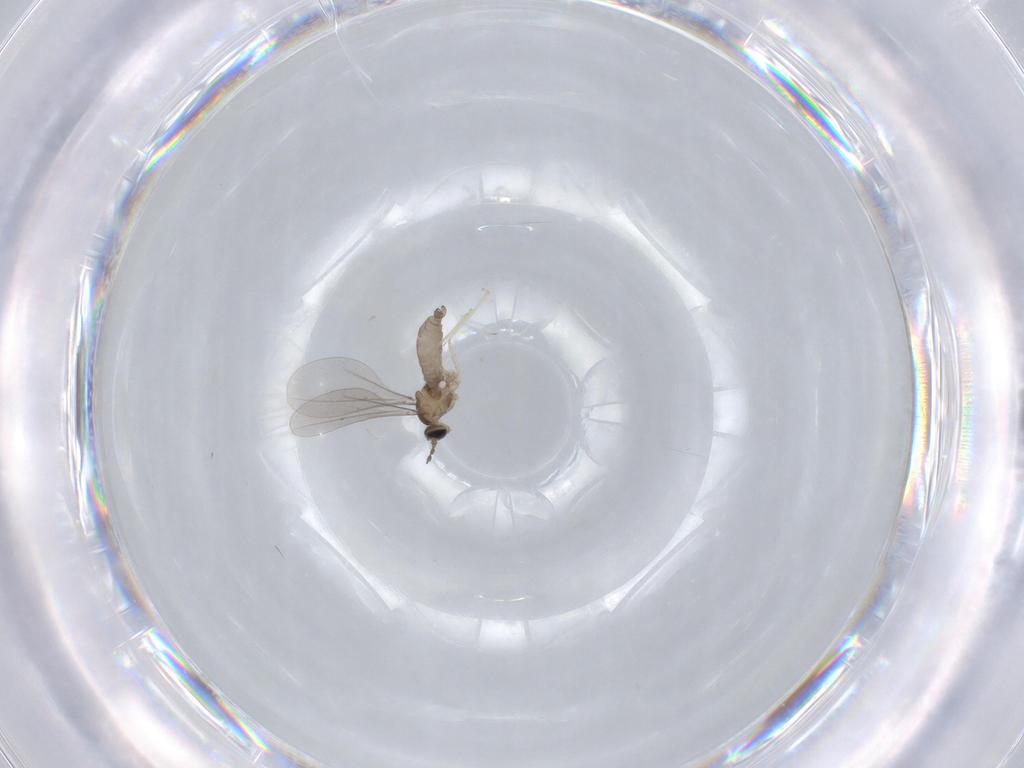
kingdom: Animalia
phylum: Arthropoda
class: Insecta
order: Diptera
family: Cecidomyiidae
